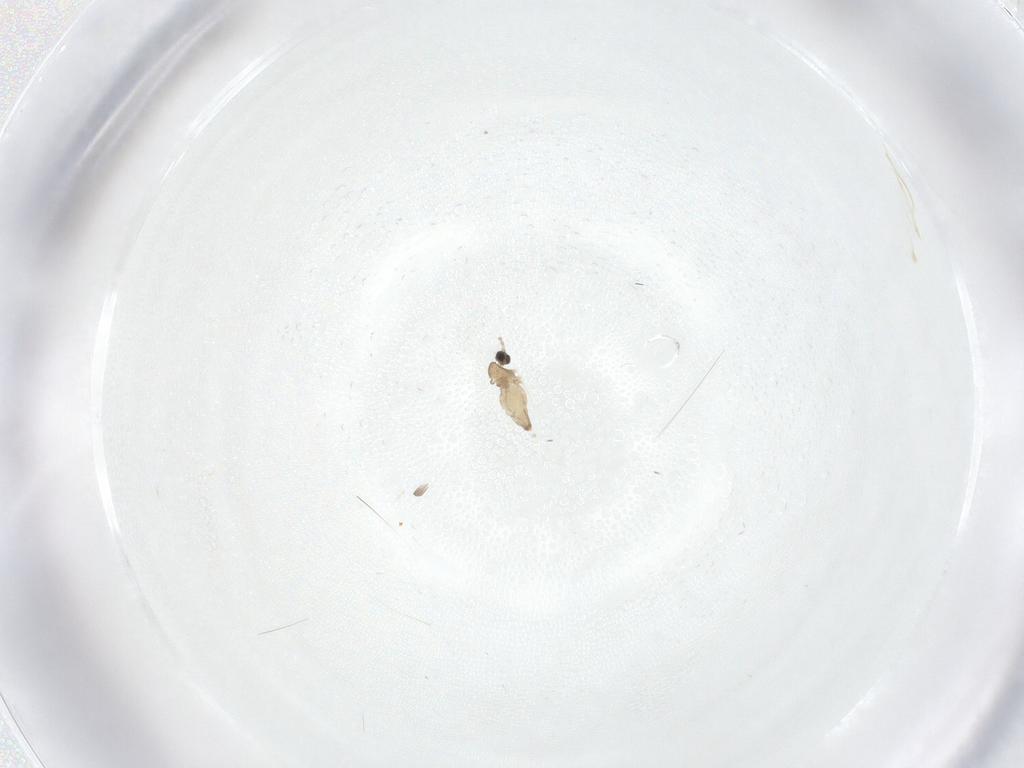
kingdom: Animalia
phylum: Arthropoda
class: Insecta
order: Diptera
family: Cecidomyiidae
